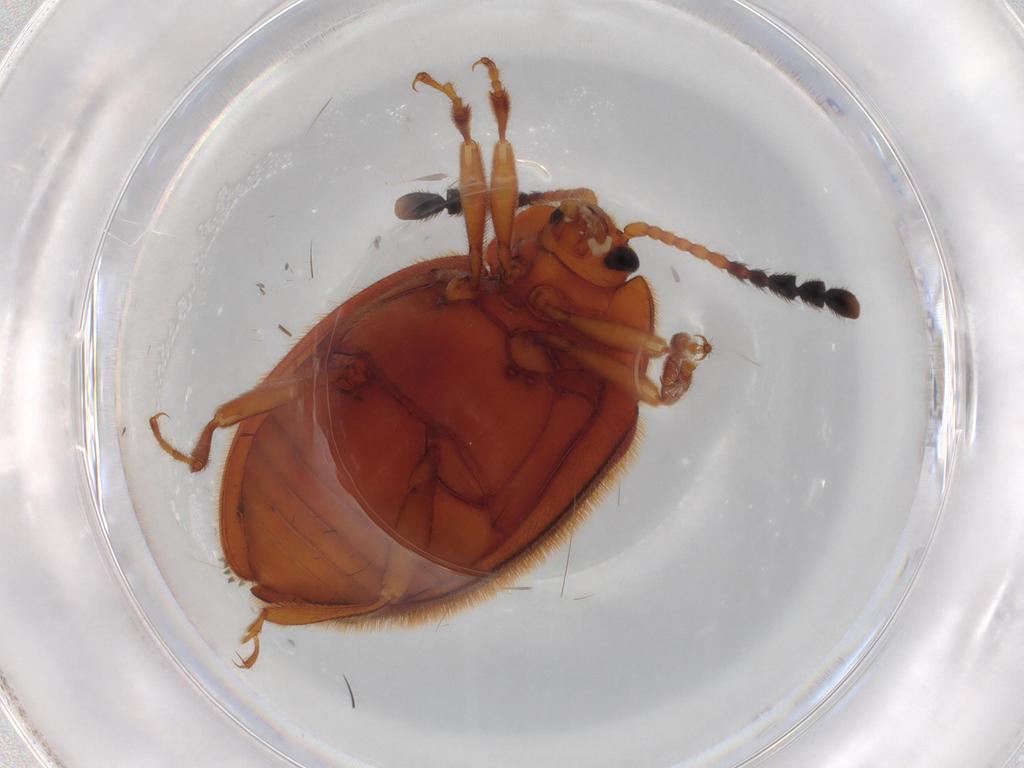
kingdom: Animalia
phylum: Arthropoda
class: Insecta
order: Coleoptera
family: Endomychidae
